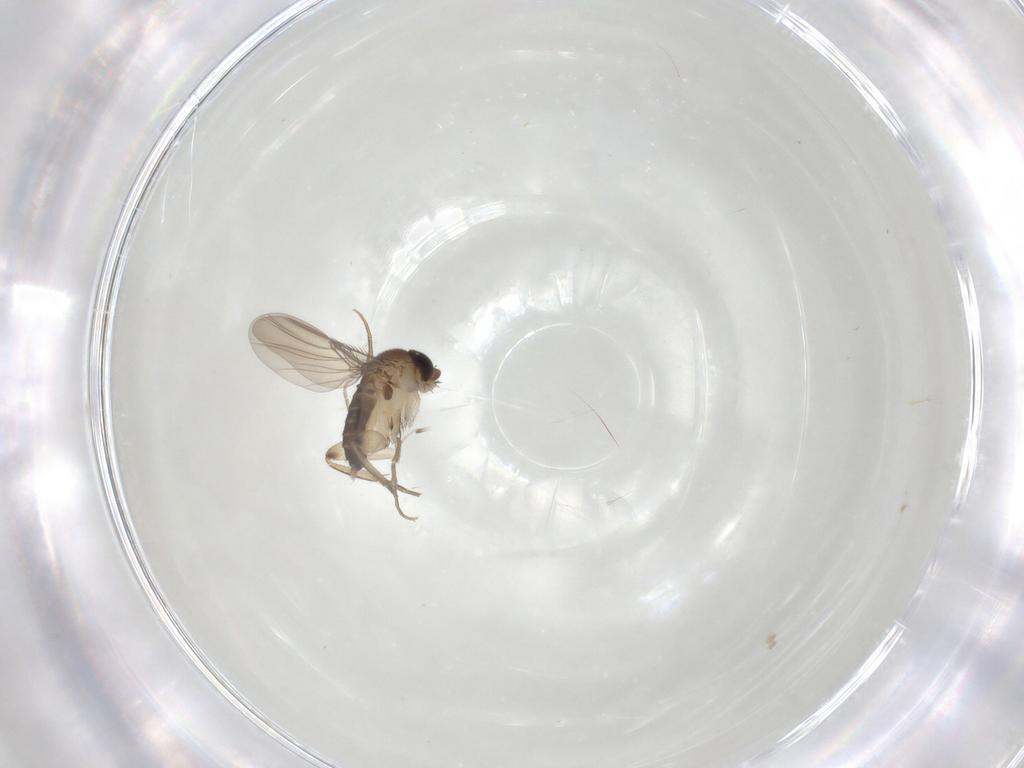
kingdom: Animalia
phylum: Arthropoda
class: Insecta
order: Diptera
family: Phoridae
